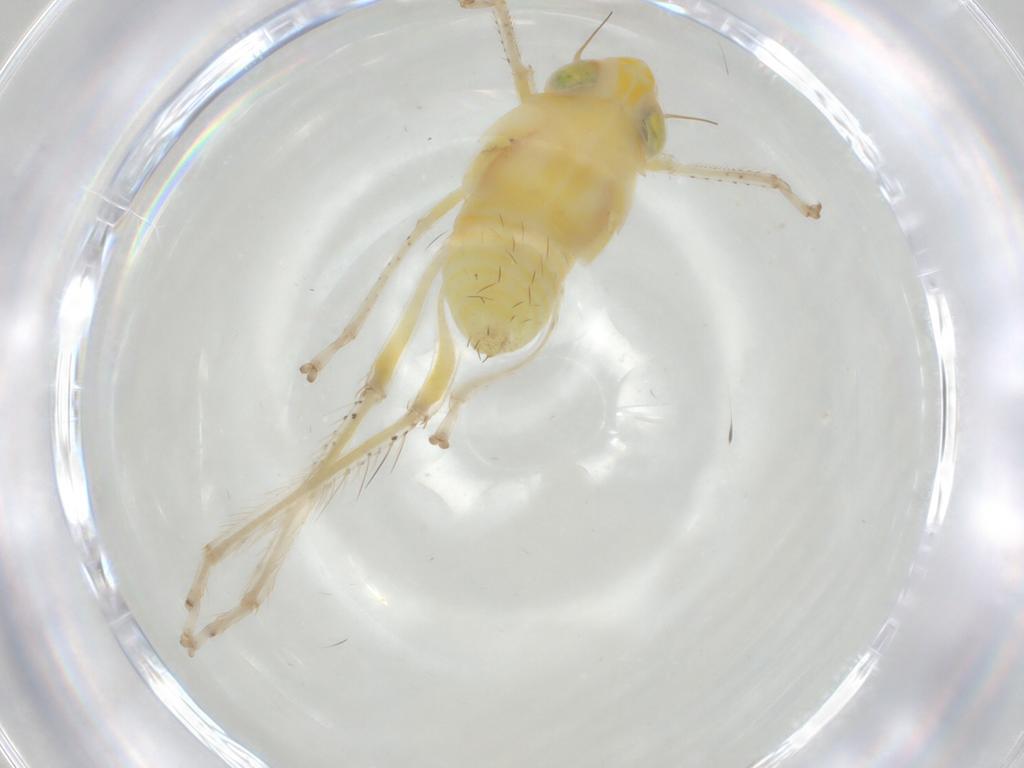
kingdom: Animalia
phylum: Arthropoda
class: Insecta
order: Hemiptera
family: Cicadellidae
